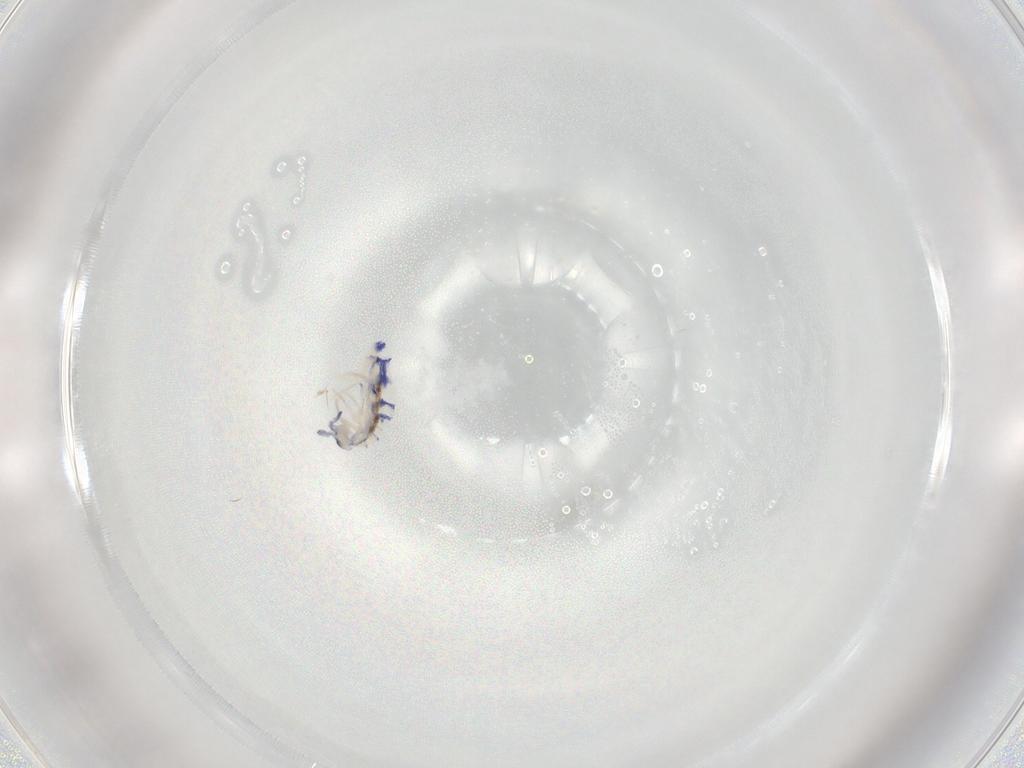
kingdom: Animalia
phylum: Arthropoda
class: Collembola
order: Entomobryomorpha
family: Entomobryidae
